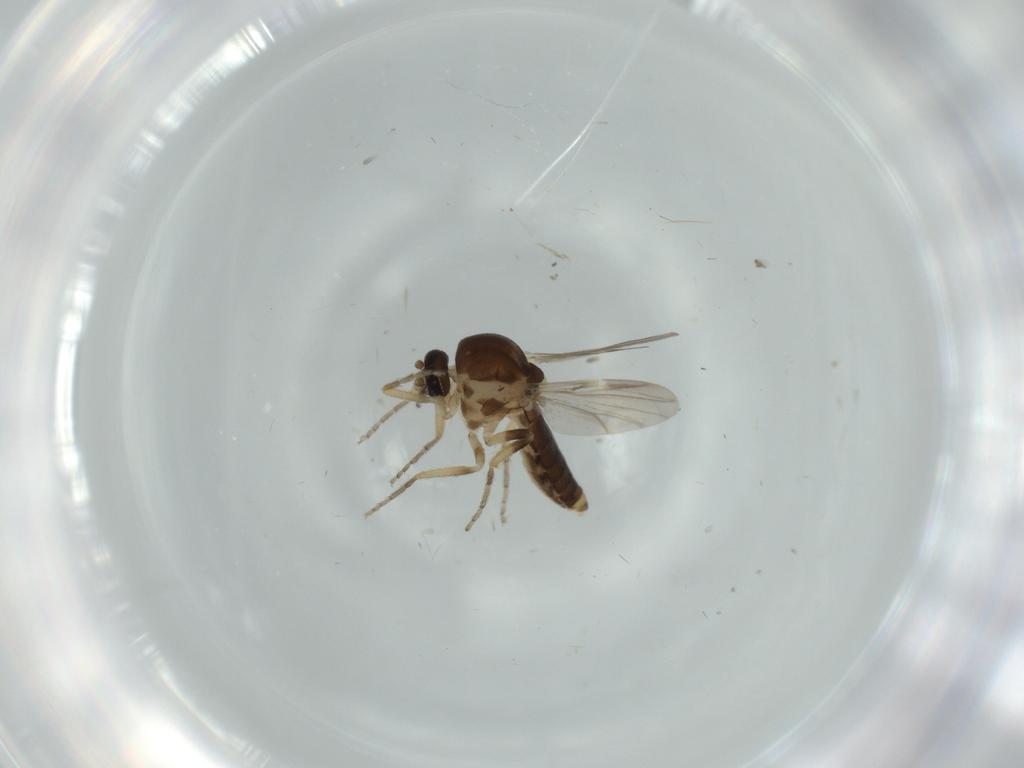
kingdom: Animalia
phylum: Arthropoda
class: Insecta
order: Diptera
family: Ceratopogonidae
